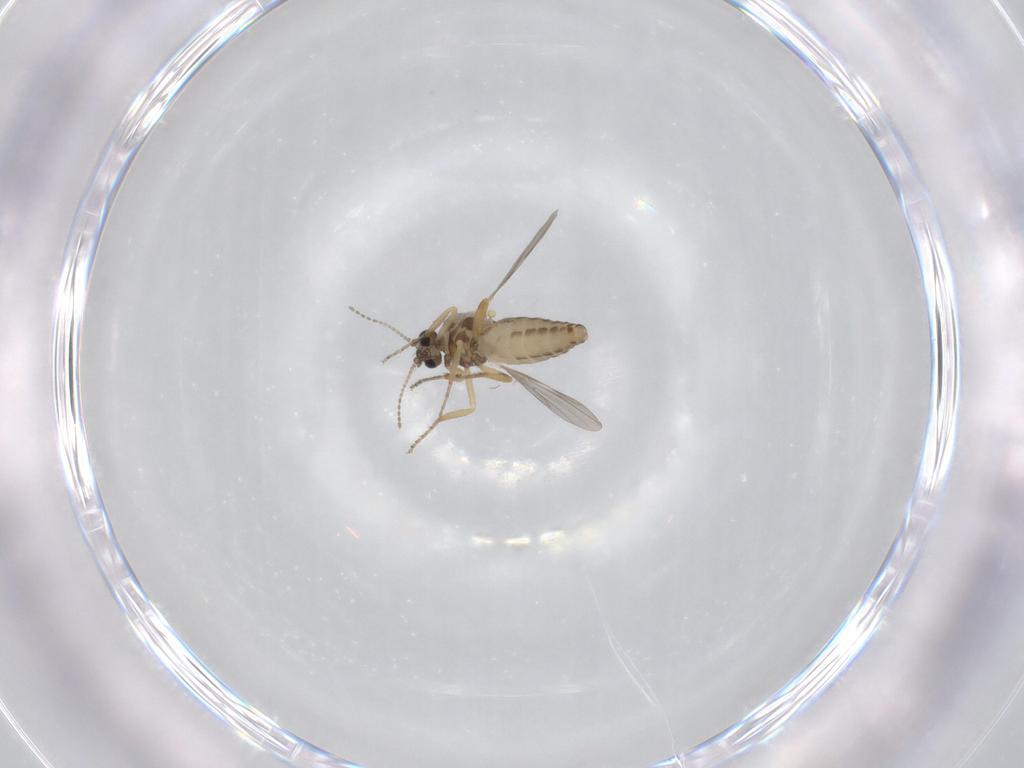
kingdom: Animalia
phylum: Arthropoda
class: Insecta
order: Diptera
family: Ceratopogonidae
